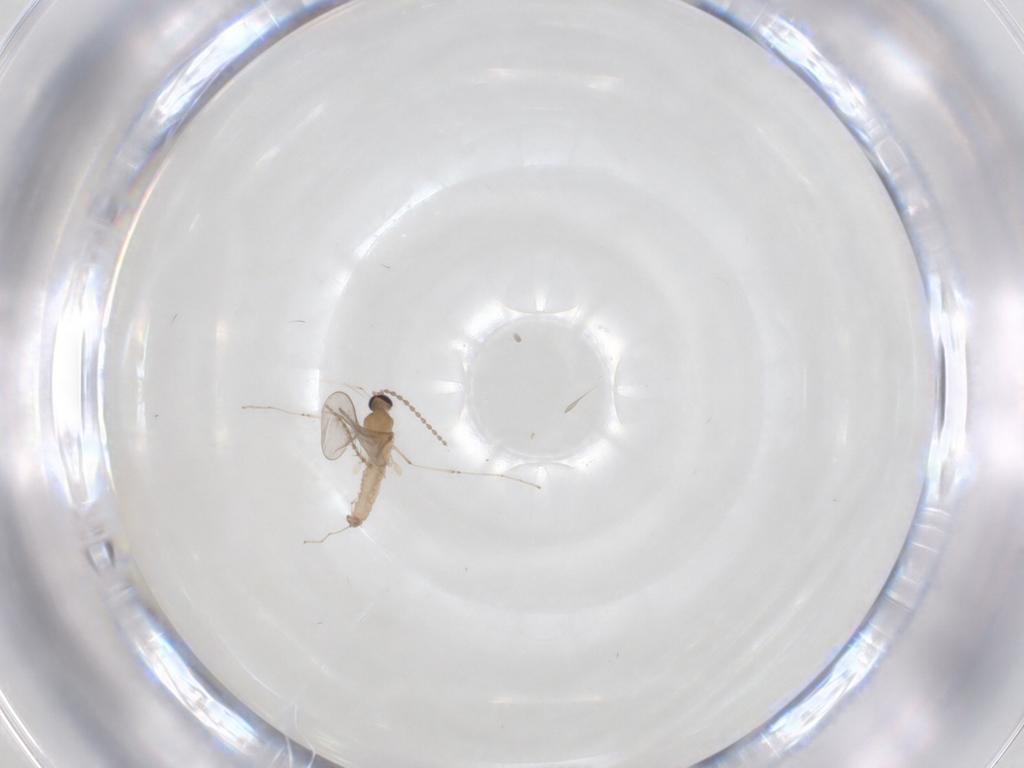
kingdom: Animalia
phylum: Arthropoda
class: Insecta
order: Diptera
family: Cecidomyiidae
